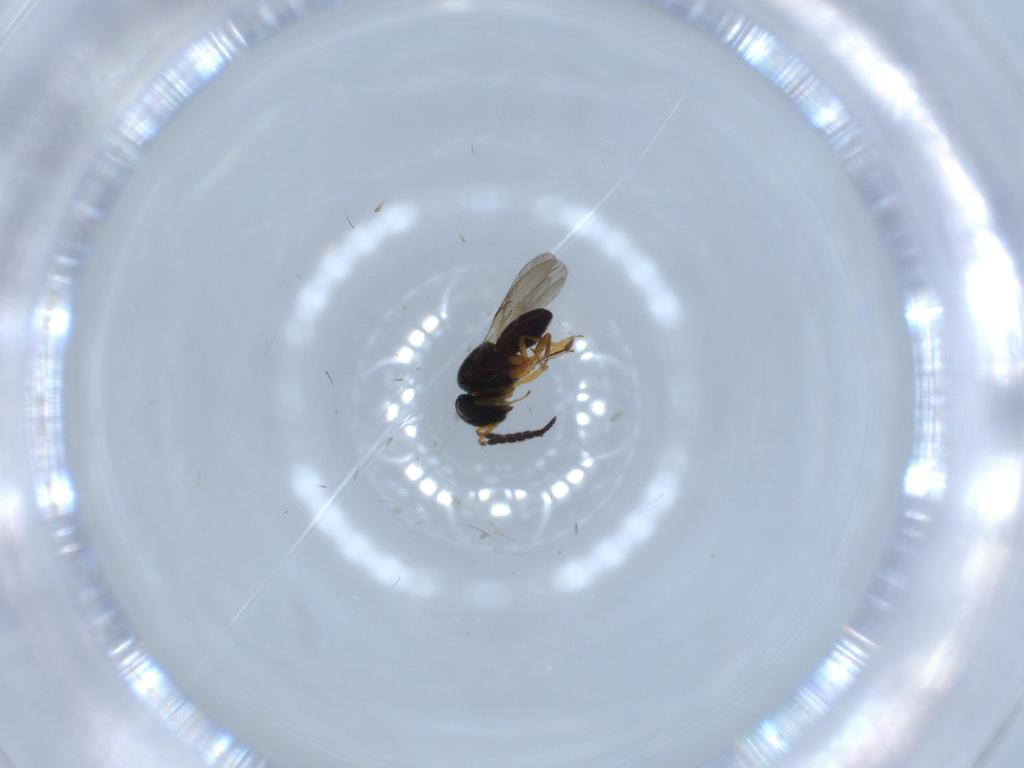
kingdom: Animalia
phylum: Arthropoda
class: Insecta
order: Hymenoptera
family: Scelionidae
